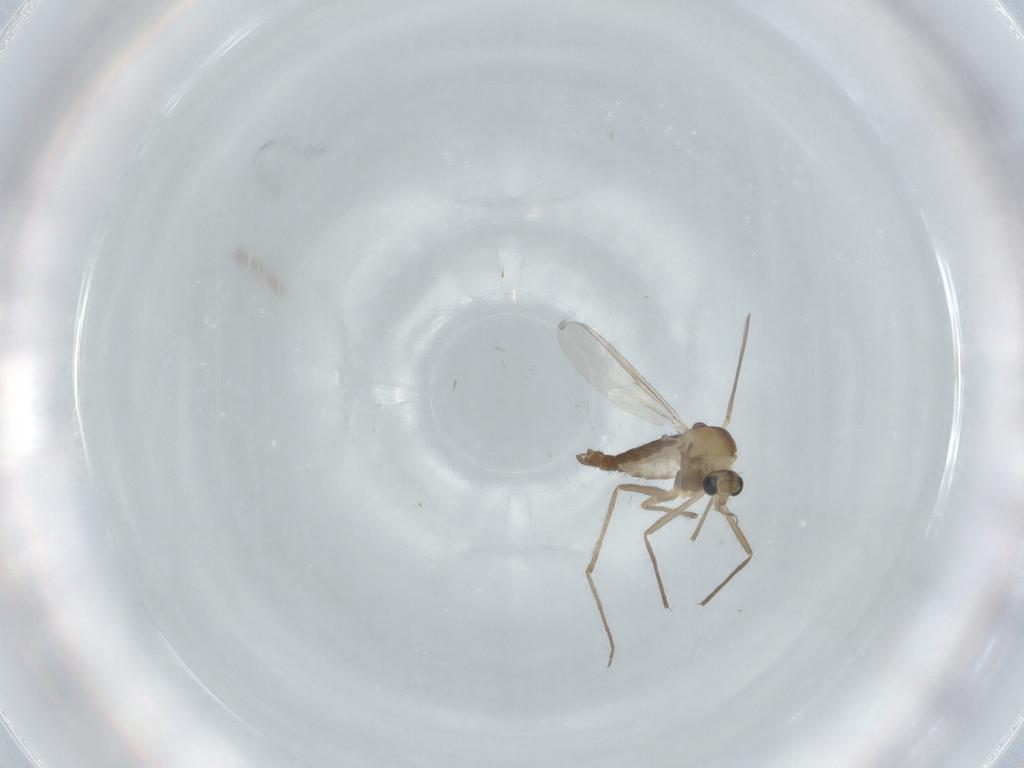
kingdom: Animalia
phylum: Arthropoda
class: Insecta
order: Diptera
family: Chironomidae
